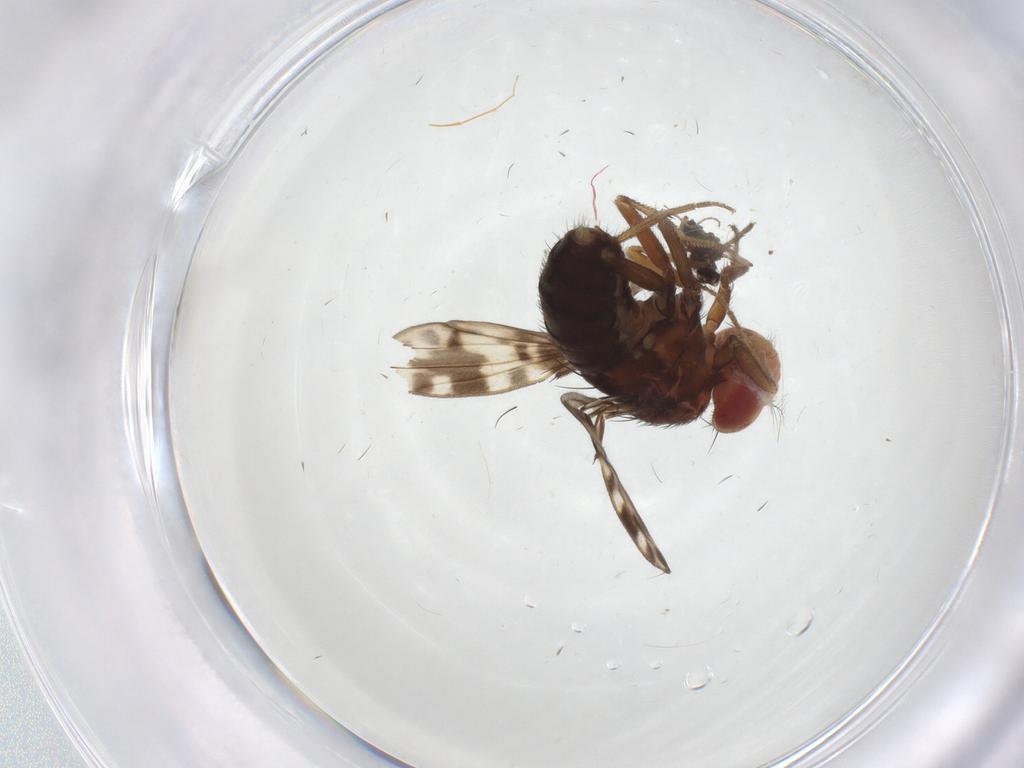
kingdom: Animalia
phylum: Arthropoda
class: Insecta
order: Diptera
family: Drosophilidae
